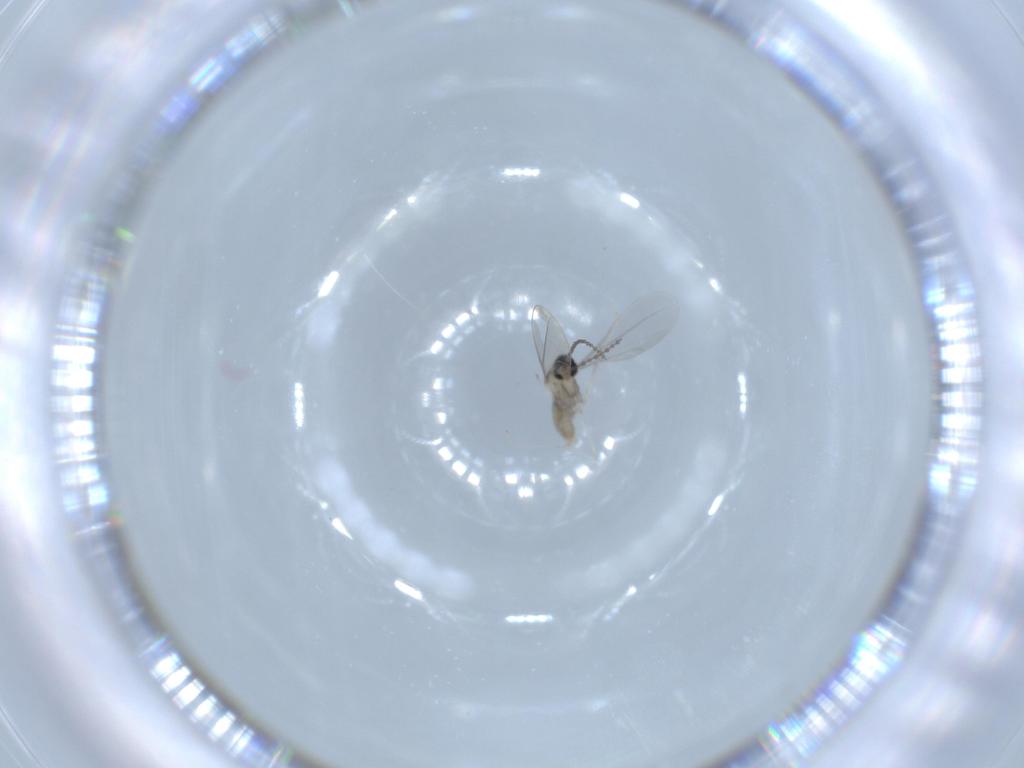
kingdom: Animalia
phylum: Arthropoda
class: Insecta
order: Diptera
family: Cecidomyiidae
